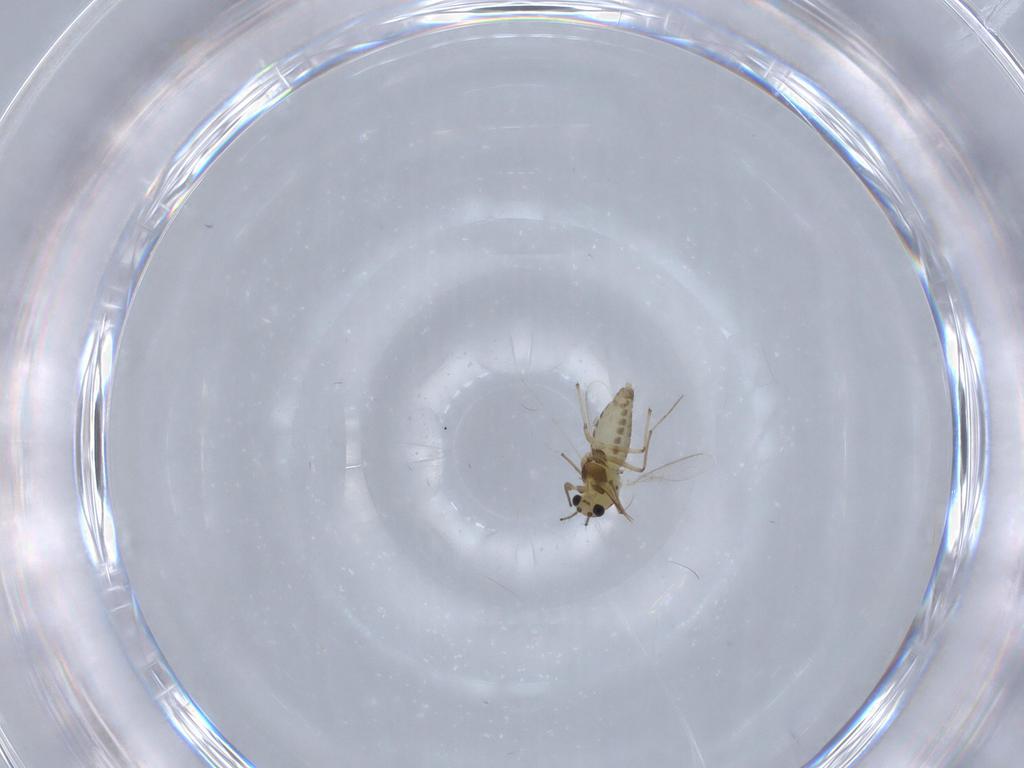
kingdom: Animalia
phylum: Arthropoda
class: Insecta
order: Diptera
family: Chironomidae
